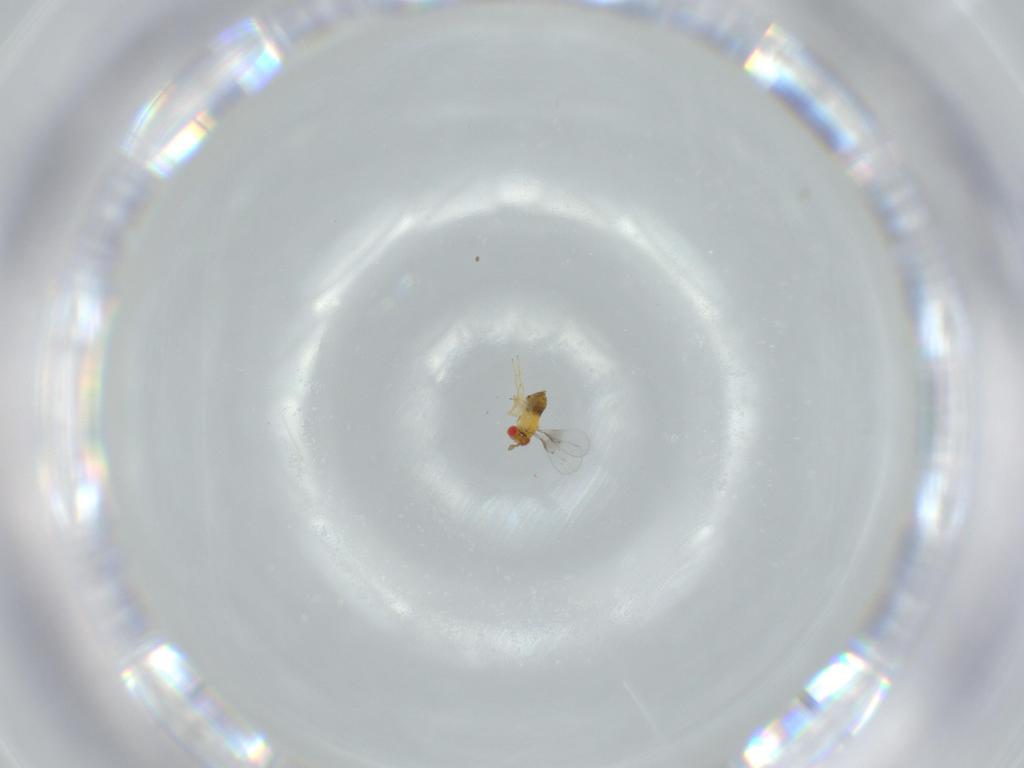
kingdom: Animalia
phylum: Arthropoda
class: Insecta
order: Hymenoptera
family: Trichogrammatidae
